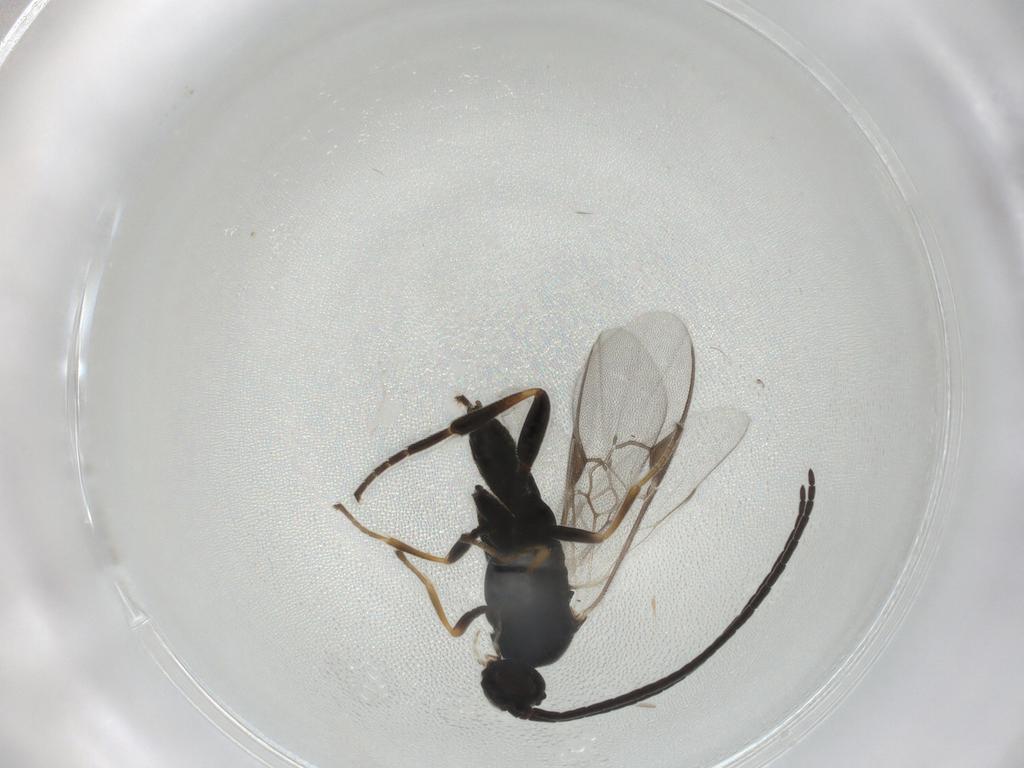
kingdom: Animalia
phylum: Arthropoda
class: Insecta
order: Hymenoptera
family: Braconidae
